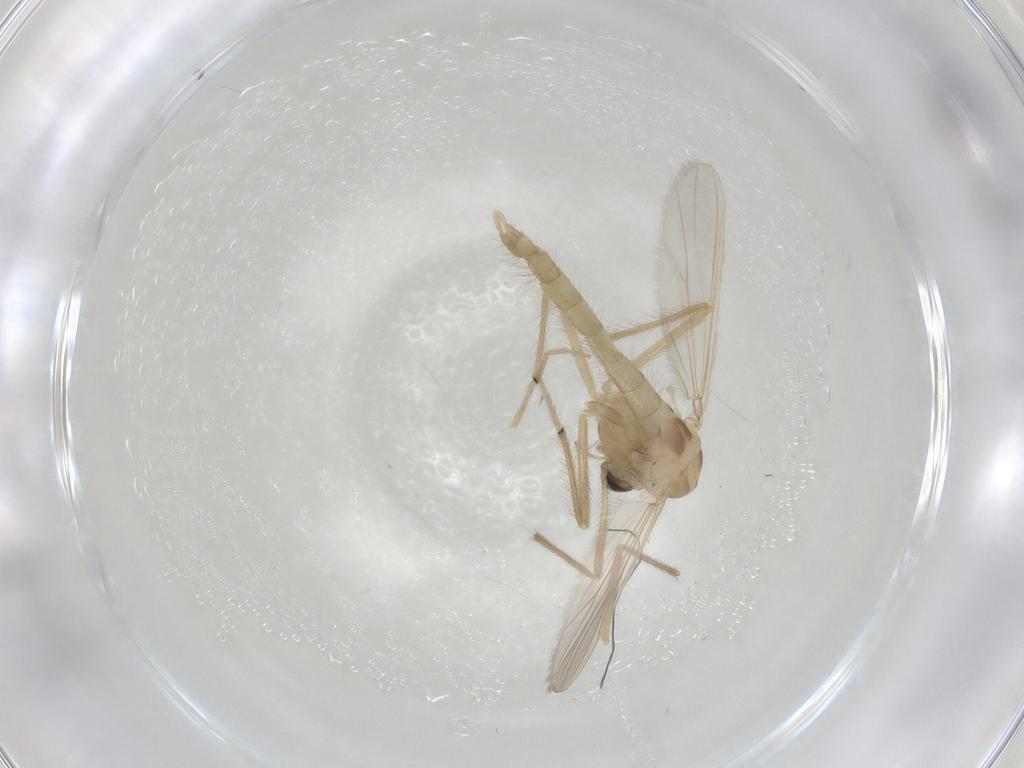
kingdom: Animalia
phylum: Arthropoda
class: Insecta
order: Diptera
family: Chironomidae
